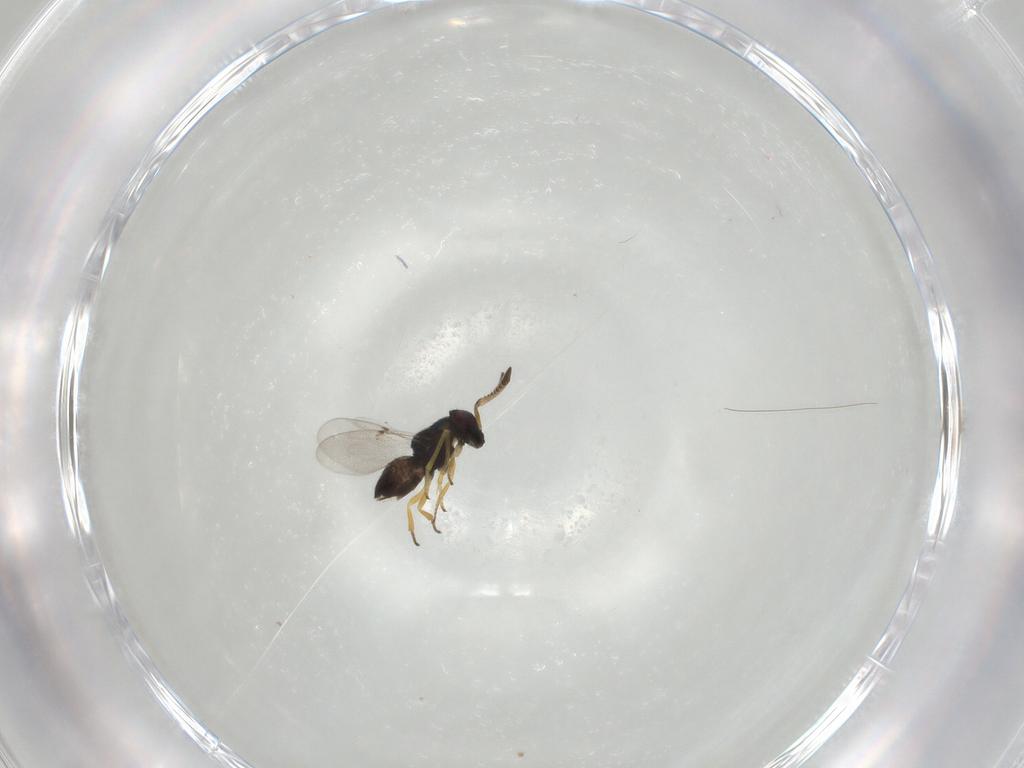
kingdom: Animalia
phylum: Arthropoda
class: Insecta
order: Hymenoptera
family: Encyrtidae
